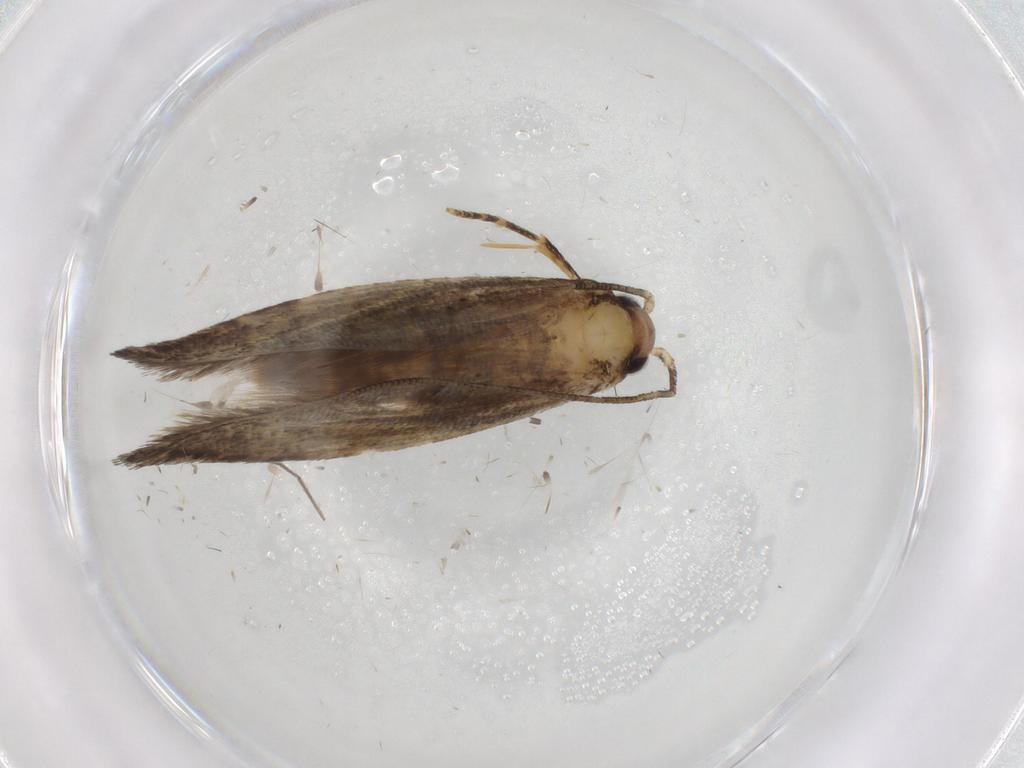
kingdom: Animalia
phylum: Arthropoda
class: Insecta
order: Lepidoptera
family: Tineidae
